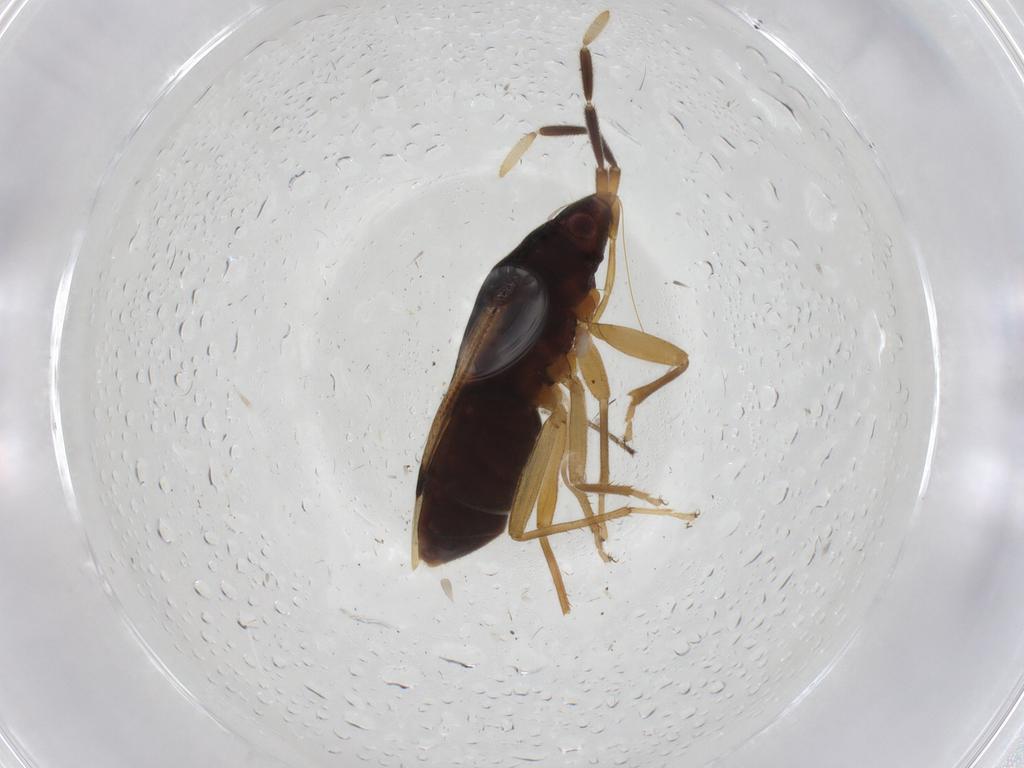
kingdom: Animalia
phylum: Arthropoda
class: Insecta
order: Hemiptera
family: Rhyparochromidae
